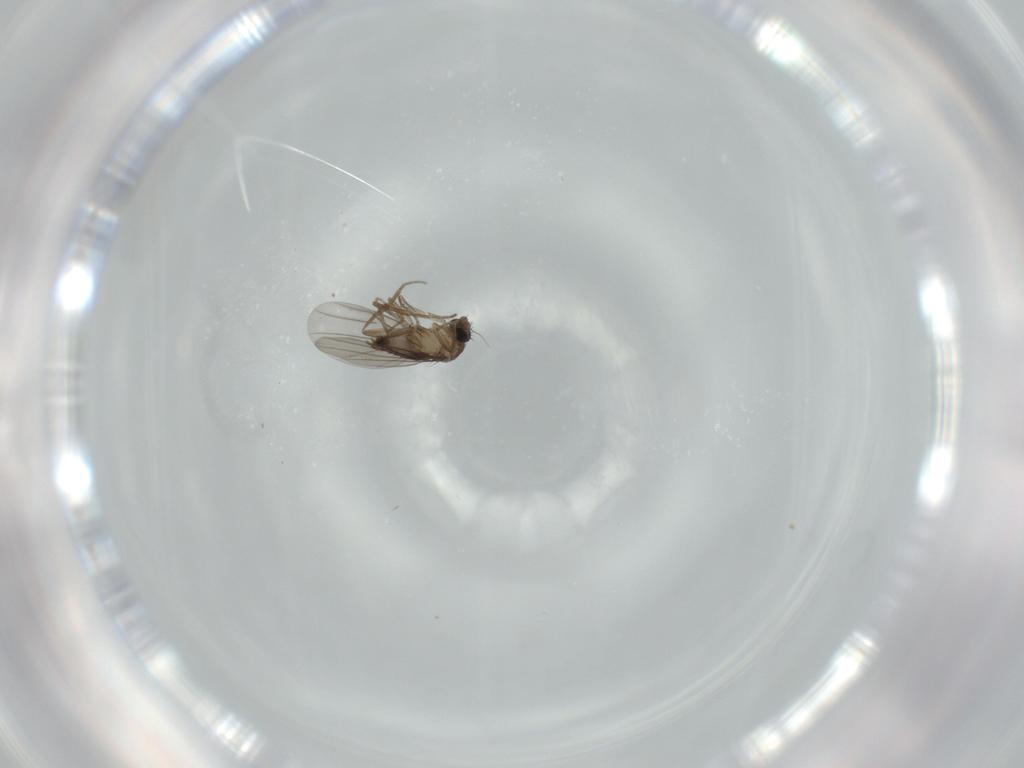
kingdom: Animalia
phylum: Arthropoda
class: Insecta
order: Diptera
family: Phoridae
